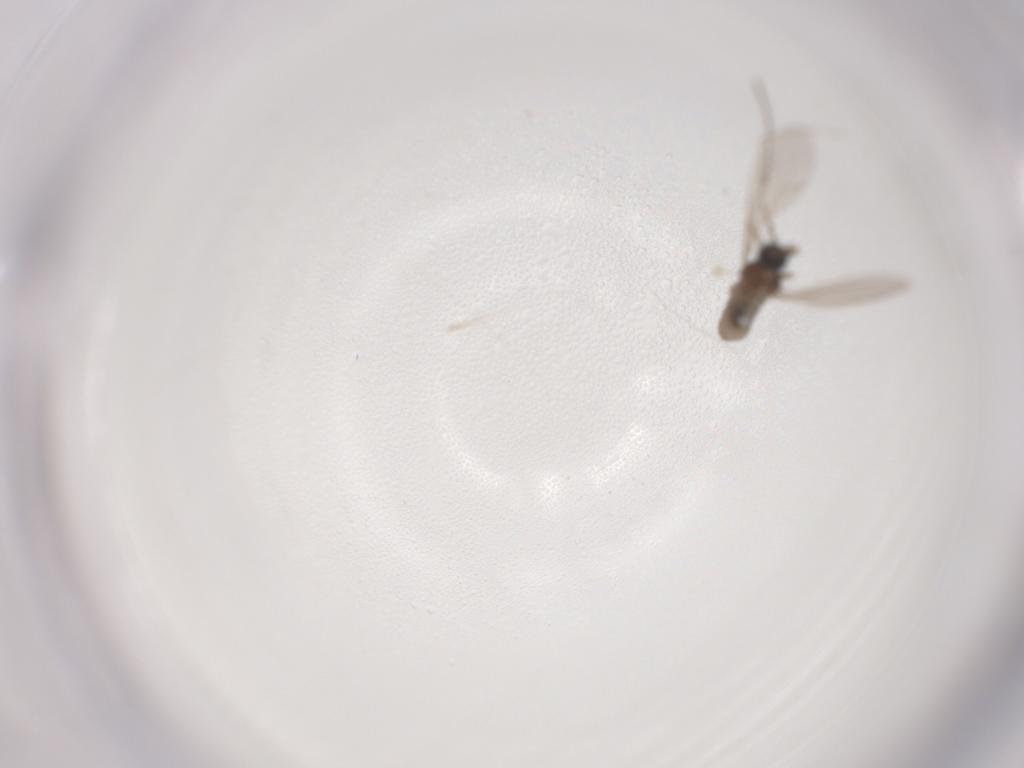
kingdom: Animalia
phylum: Arthropoda
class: Insecta
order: Diptera
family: Cecidomyiidae
